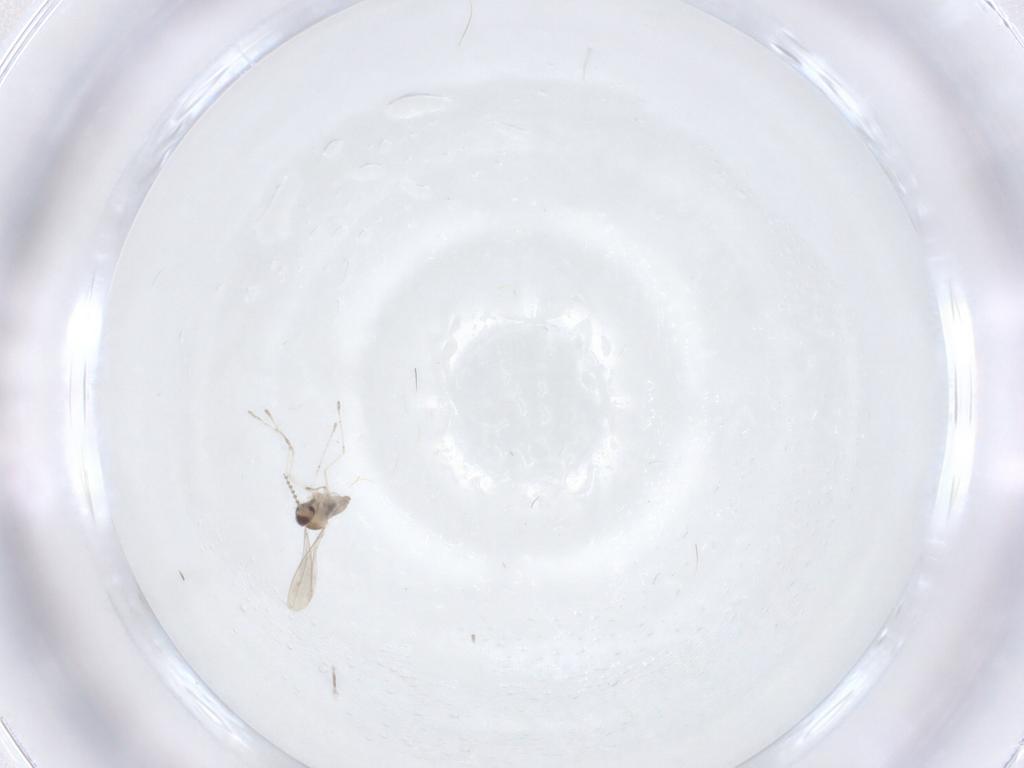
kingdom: Animalia
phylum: Arthropoda
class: Insecta
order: Diptera
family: Cecidomyiidae
